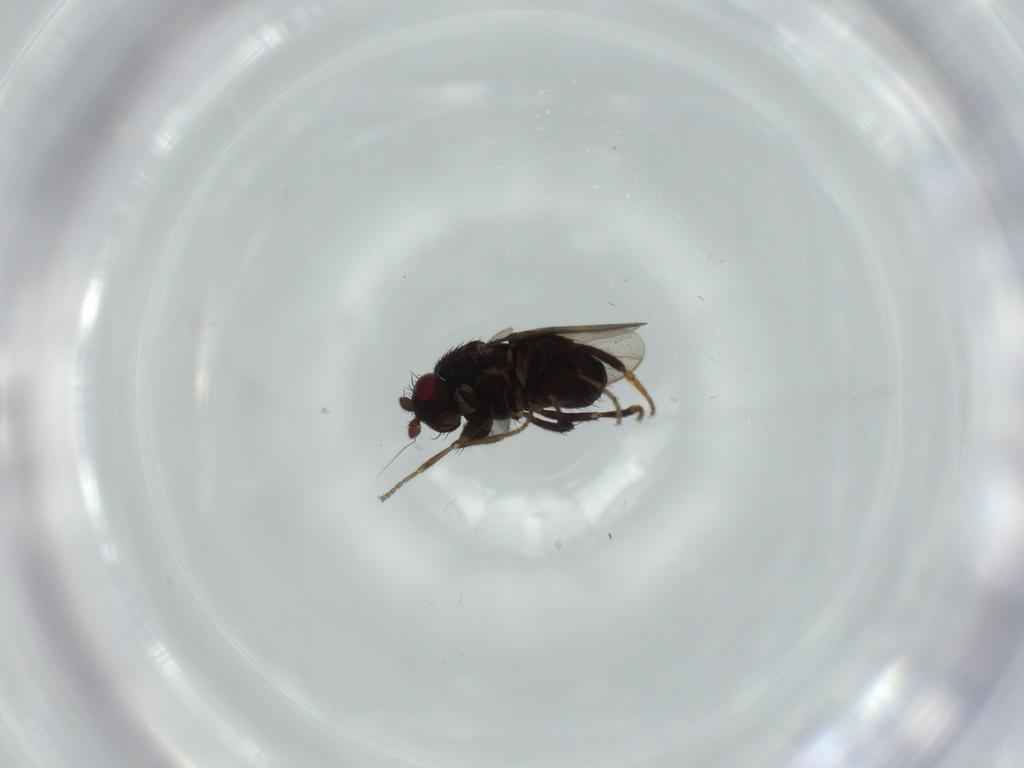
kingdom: Animalia
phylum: Arthropoda
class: Insecta
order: Diptera
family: Sphaeroceridae
